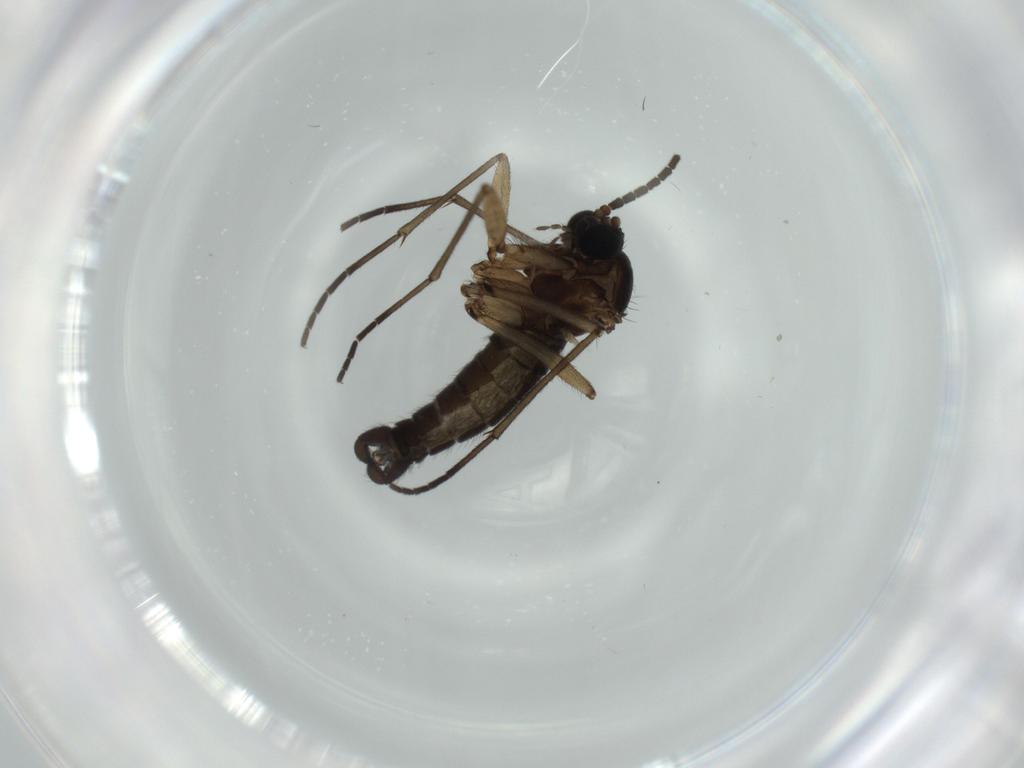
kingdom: Animalia
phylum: Arthropoda
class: Insecta
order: Diptera
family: Sciaridae
